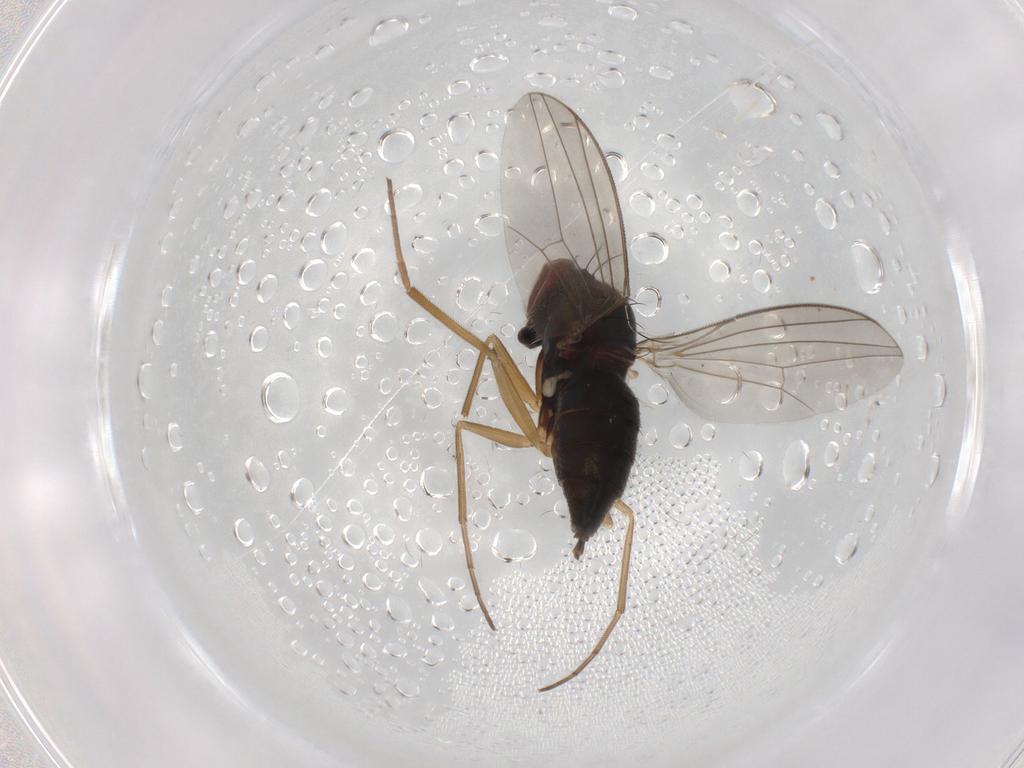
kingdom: Animalia
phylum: Arthropoda
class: Insecta
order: Diptera
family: Dolichopodidae
